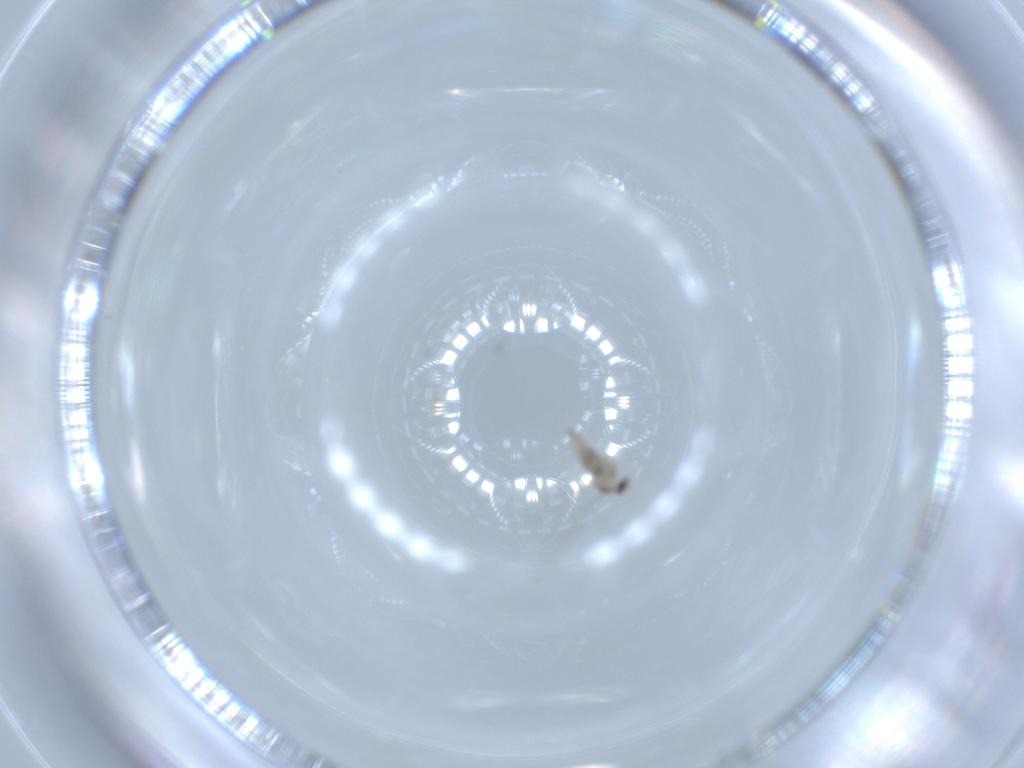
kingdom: Animalia
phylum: Arthropoda
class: Insecta
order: Diptera
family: Cecidomyiidae
